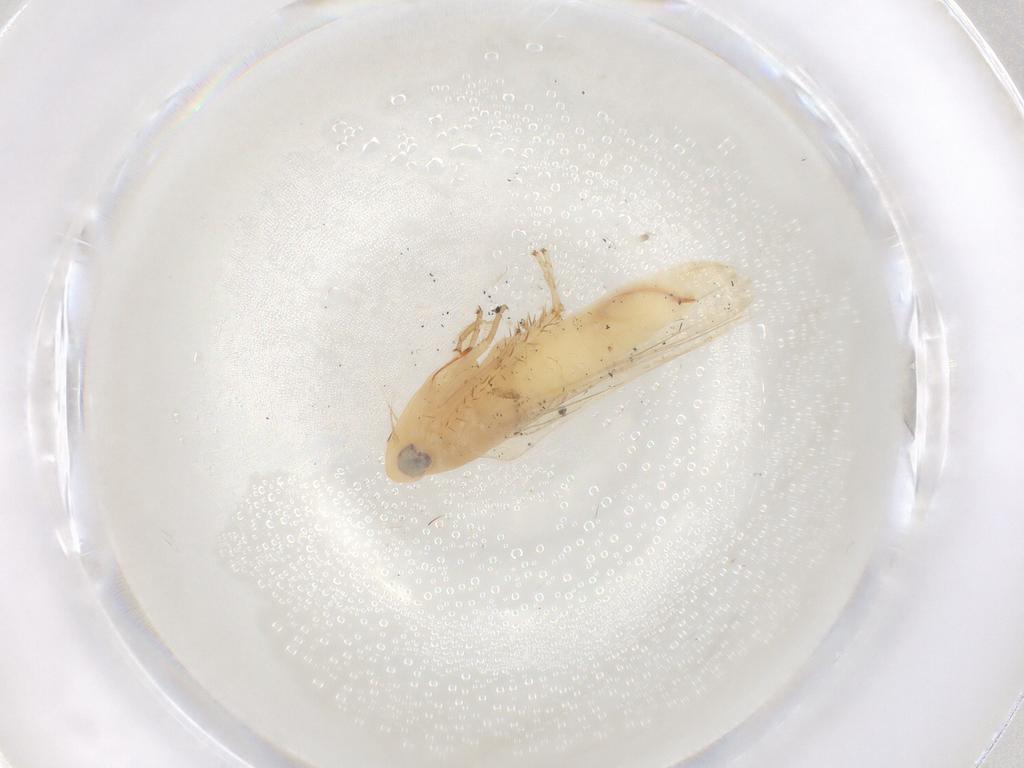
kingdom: Animalia
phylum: Arthropoda
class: Insecta
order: Hemiptera
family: Cicadellidae
